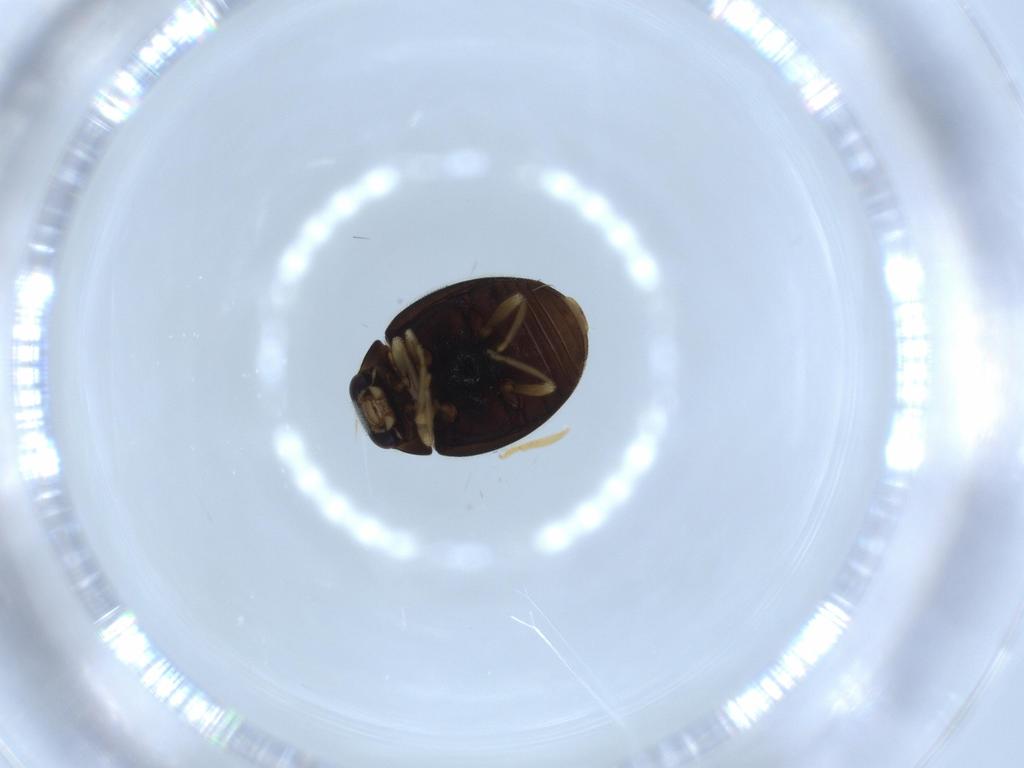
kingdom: Animalia
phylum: Arthropoda
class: Insecta
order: Coleoptera
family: Coccinellidae
